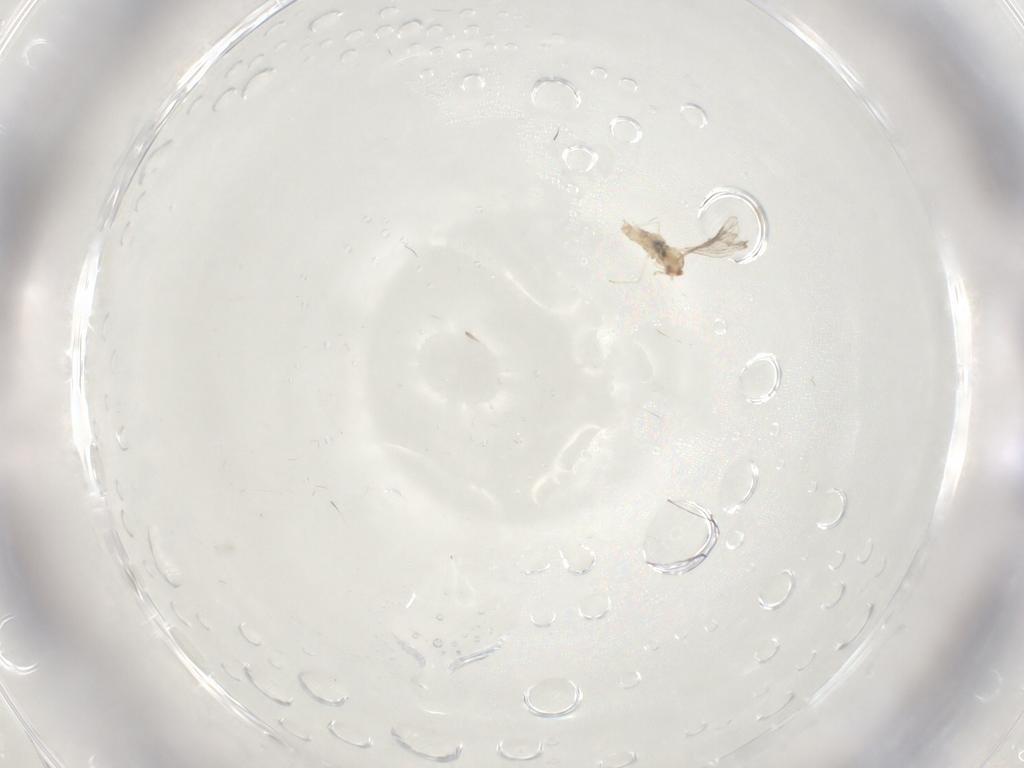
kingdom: Animalia
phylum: Arthropoda
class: Insecta
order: Diptera
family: Cecidomyiidae
